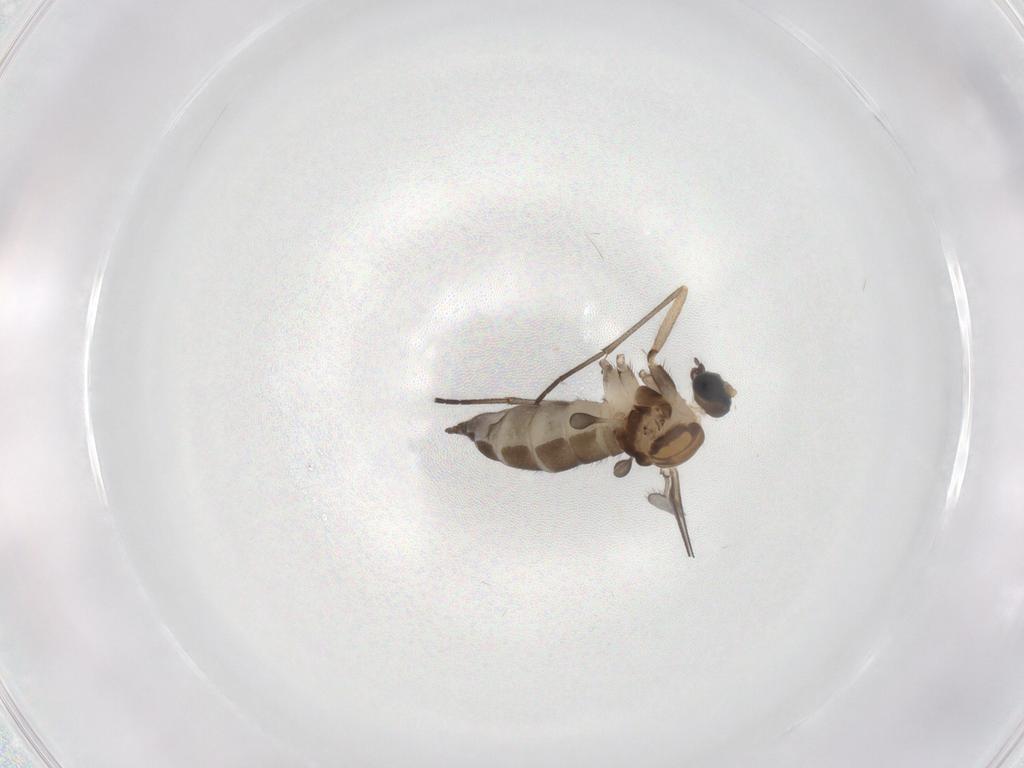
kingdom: Animalia
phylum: Arthropoda
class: Insecta
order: Diptera
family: Sciaridae
